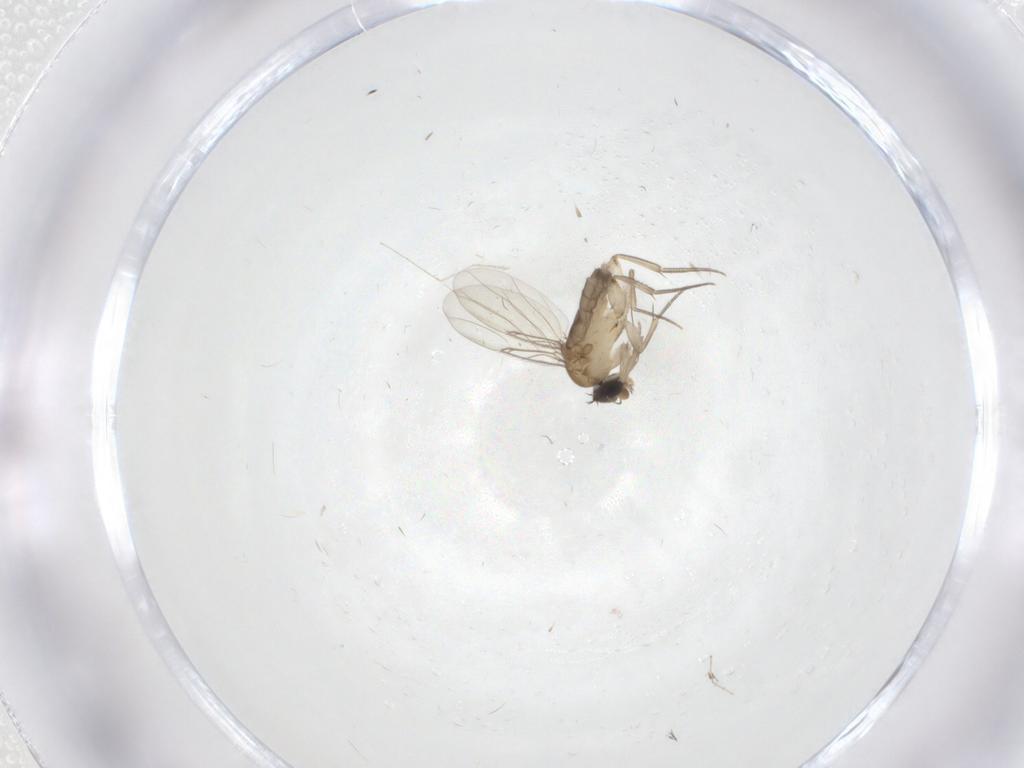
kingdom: Animalia
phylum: Arthropoda
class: Insecta
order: Diptera
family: Phoridae
